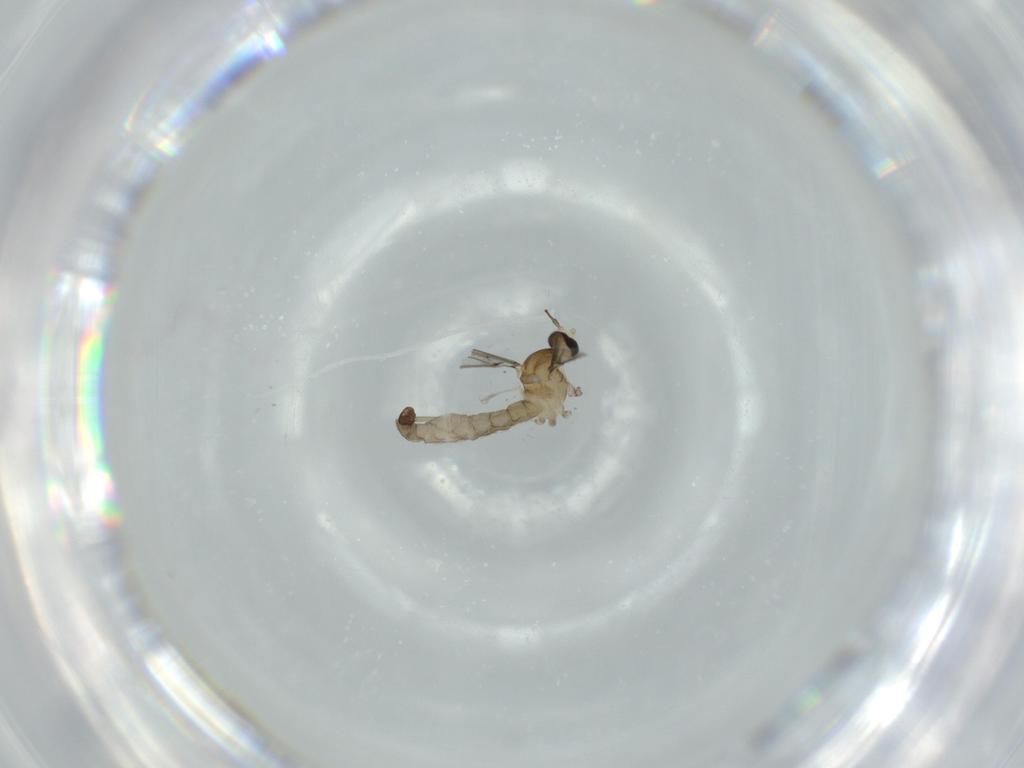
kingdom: Animalia
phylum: Arthropoda
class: Insecta
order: Diptera
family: Cecidomyiidae
